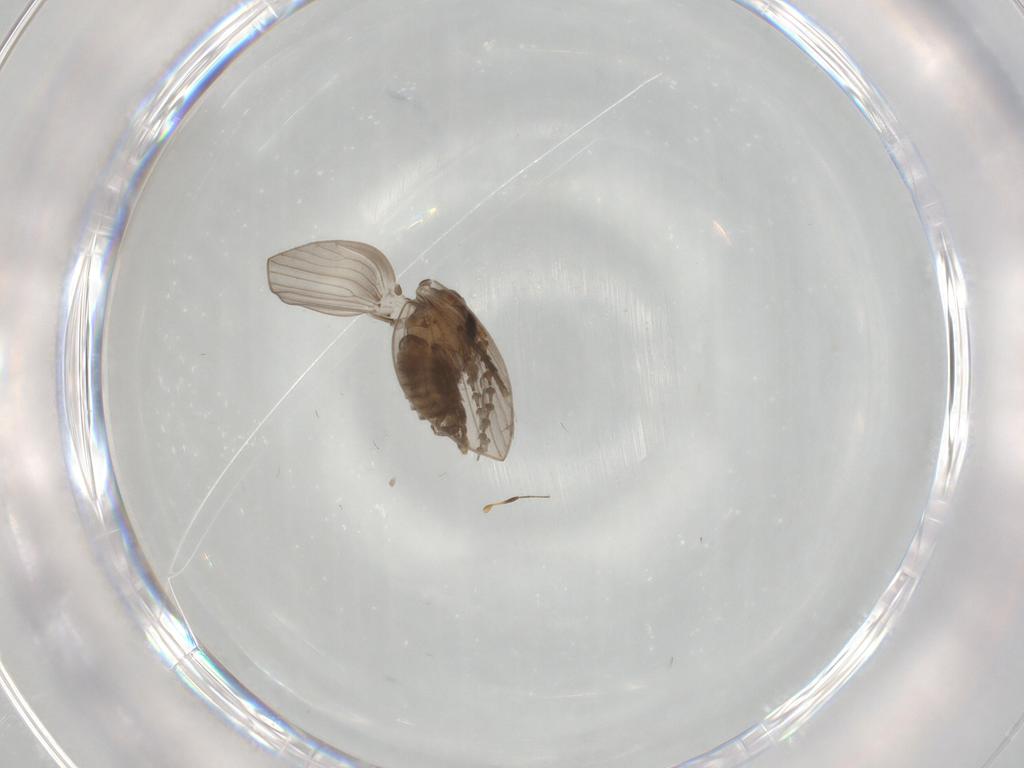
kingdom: Animalia
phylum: Arthropoda
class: Insecta
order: Diptera
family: Psychodidae
